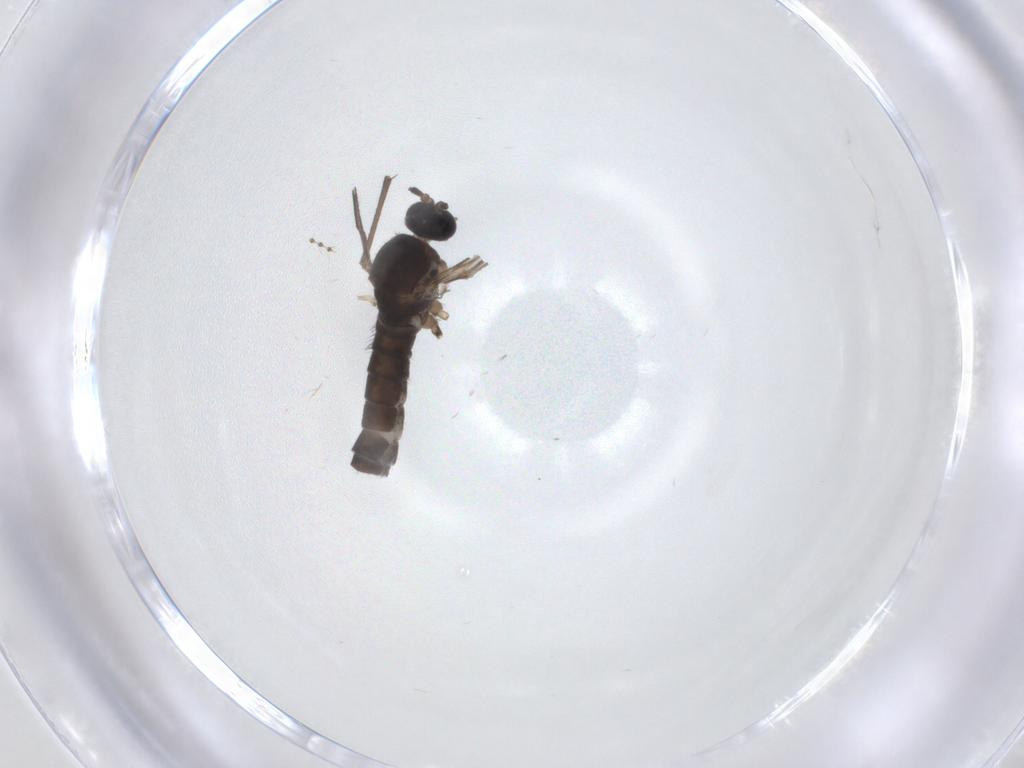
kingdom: Animalia
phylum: Arthropoda
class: Insecta
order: Diptera
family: Sciaridae
